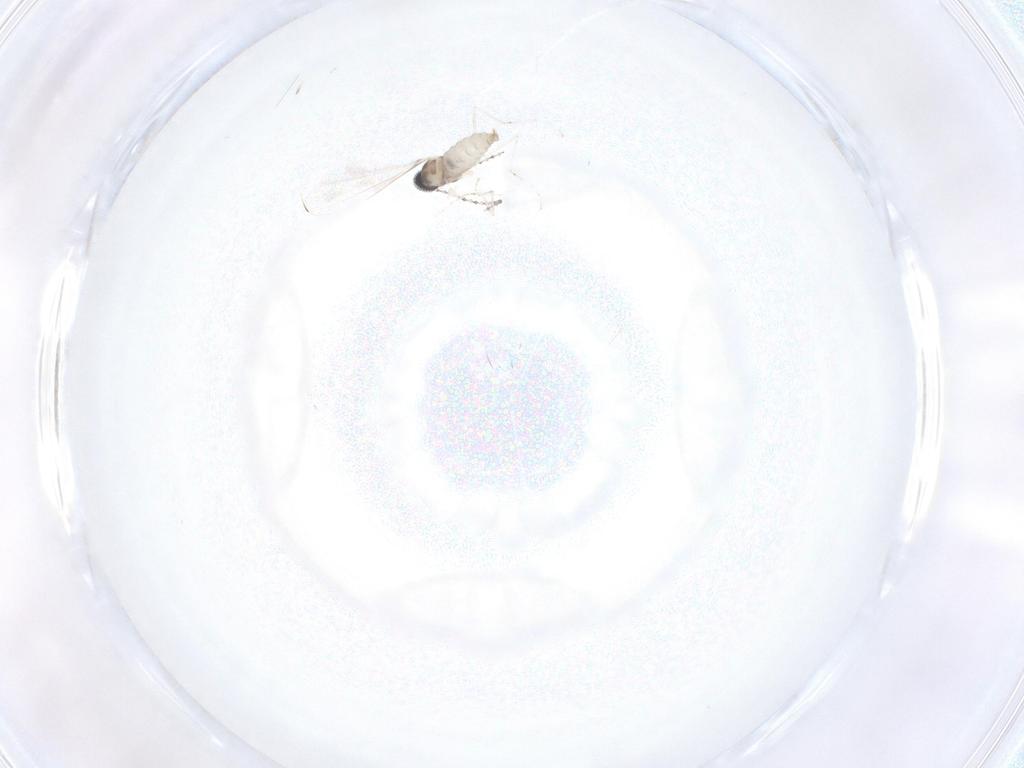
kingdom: Animalia
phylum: Arthropoda
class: Insecta
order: Diptera
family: Cecidomyiidae
